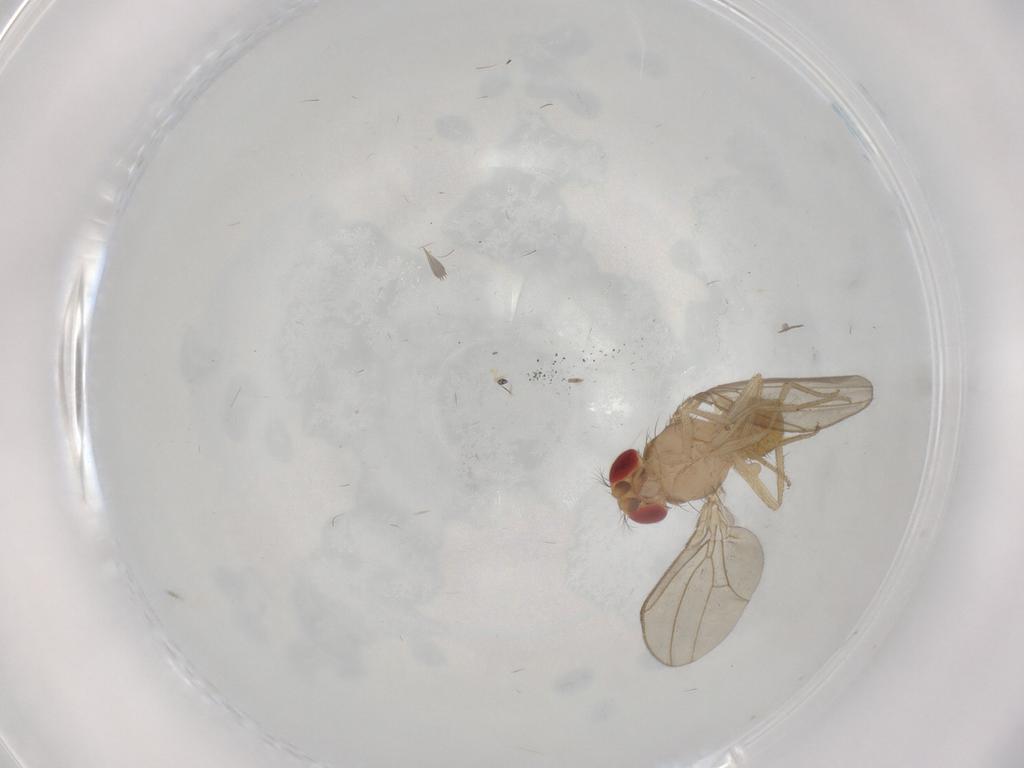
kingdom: Animalia
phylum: Arthropoda
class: Insecta
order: Diptera
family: Drosophilidae
